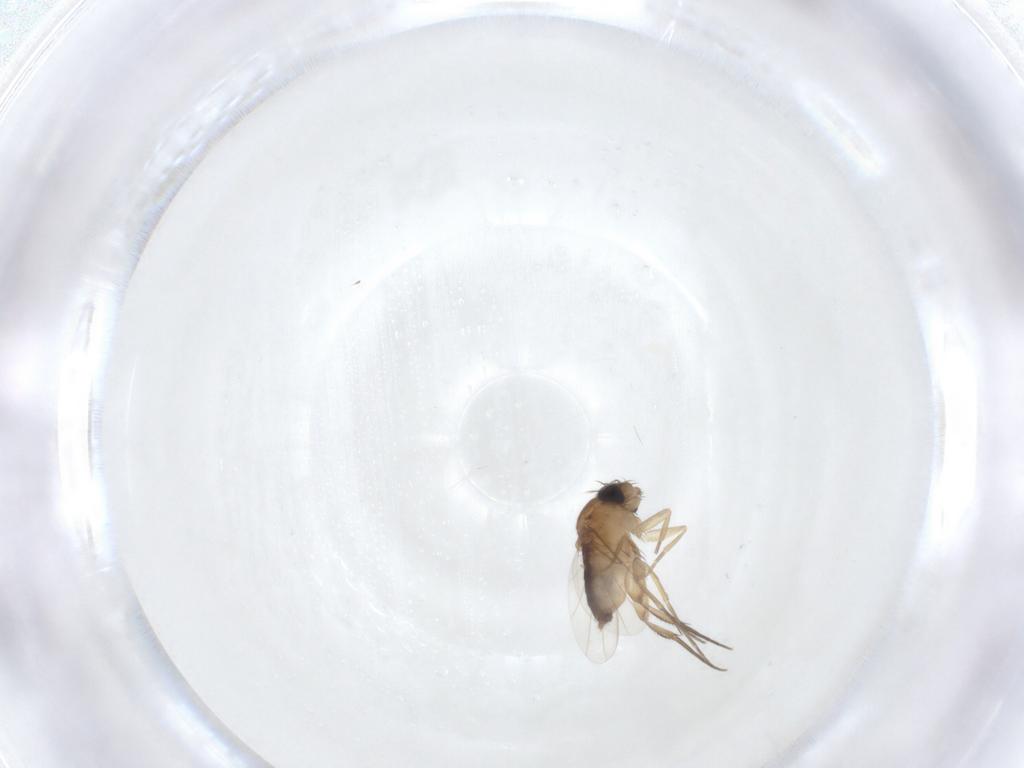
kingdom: Animalia
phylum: Arthropoda
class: Insecta
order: Diptera
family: Phoridae
